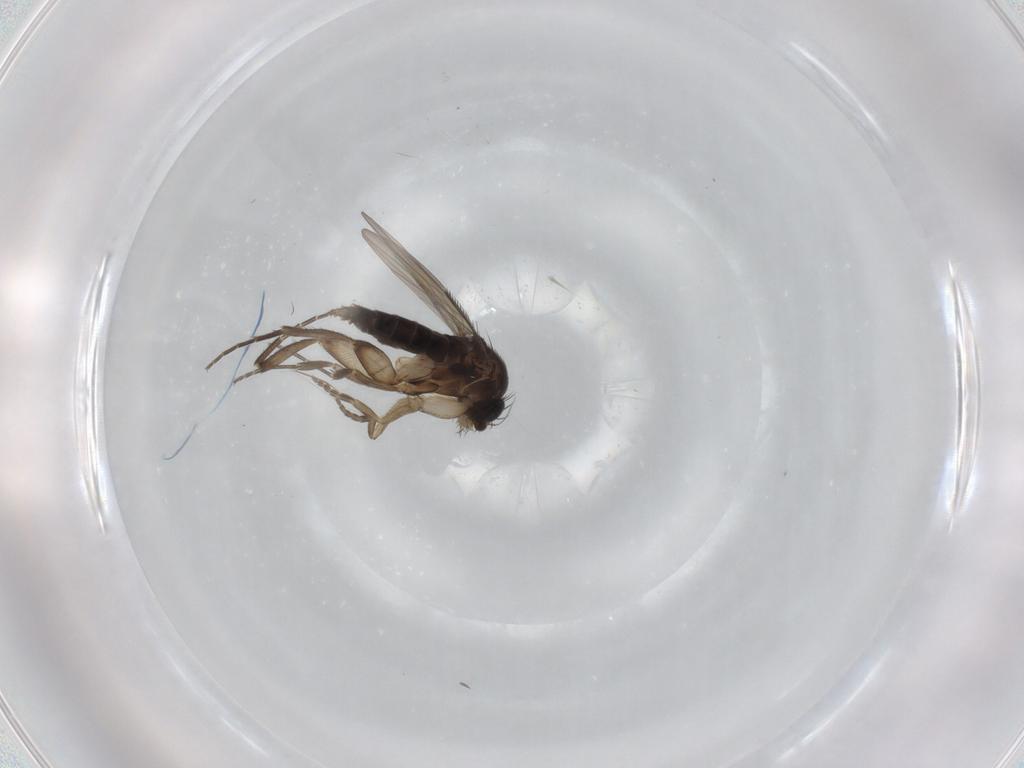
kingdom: Animalia
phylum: Arthropoda
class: Insecta
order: Diptera
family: Phoridae
